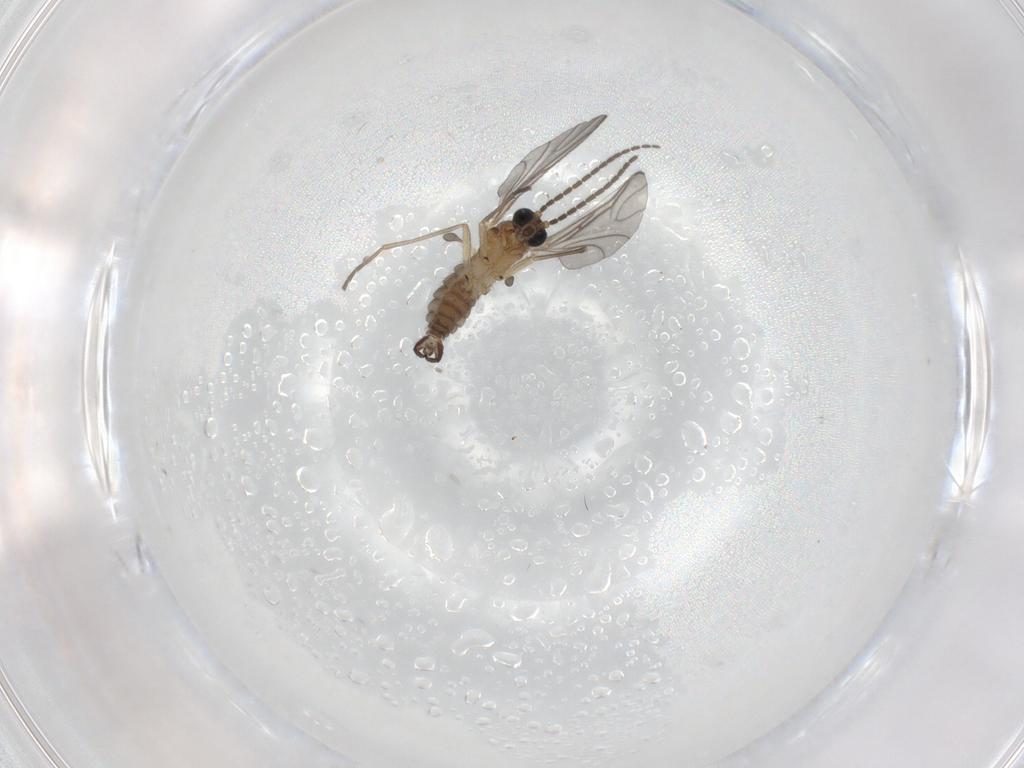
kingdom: Animalia
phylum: Arthropoda
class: Insecta
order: Diptera
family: Sciaridae
